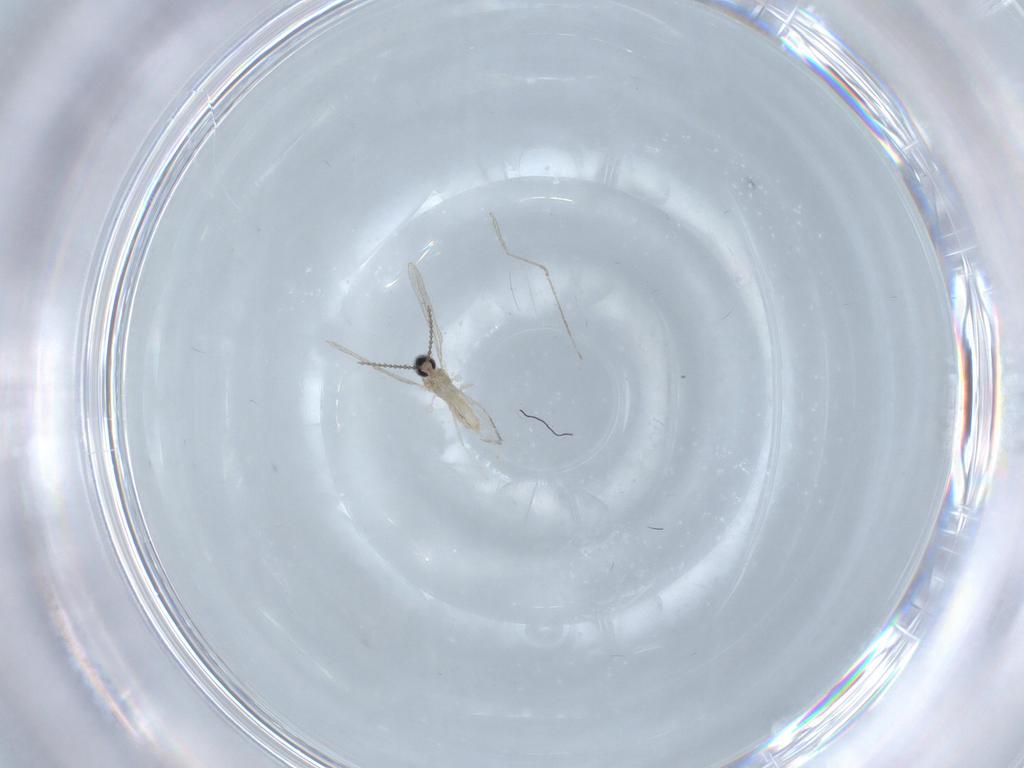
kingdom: Animalia
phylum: Arthropoda
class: Insecta
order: Diptera
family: Cecidomyiidae
